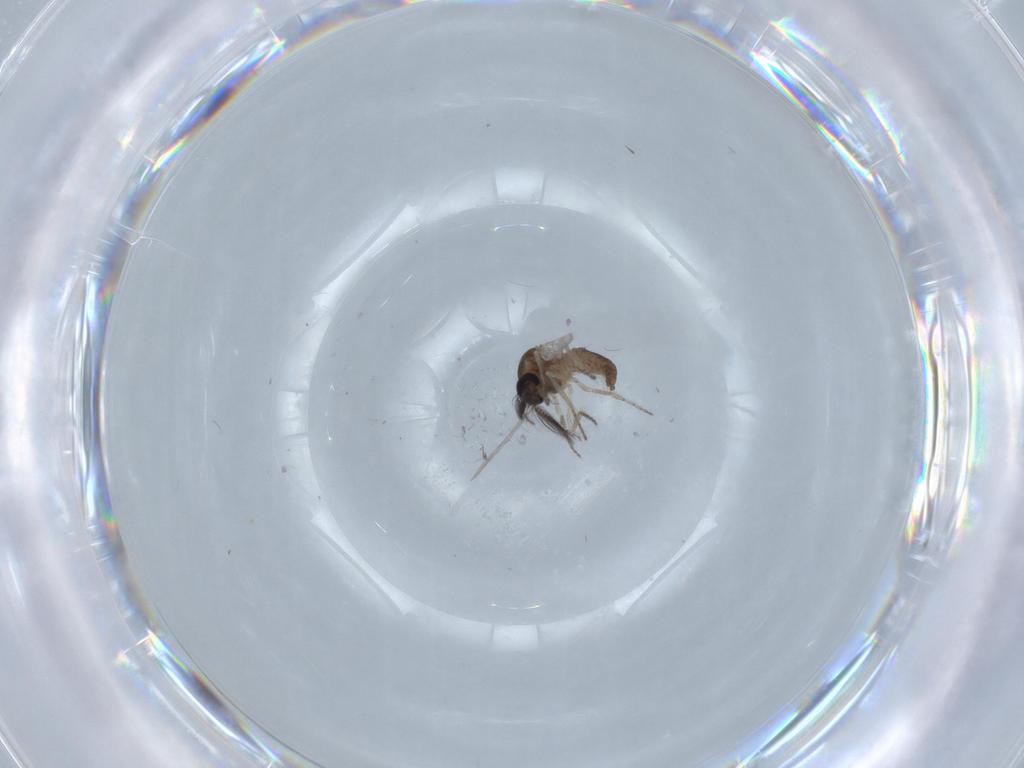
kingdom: Animalia
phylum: Arthropoda
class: Insecta
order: Diptera
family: Ceratopogonidae
